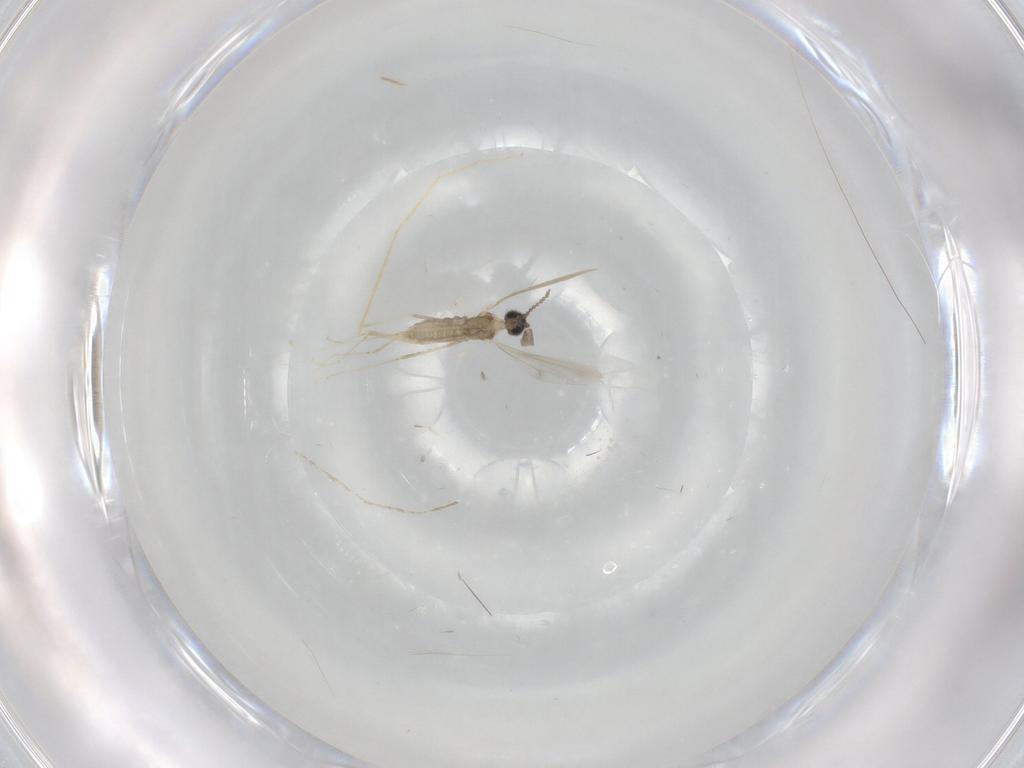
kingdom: Animalia
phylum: Arthropoda
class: Insecta
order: Diptera
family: Cecidomyiidae
